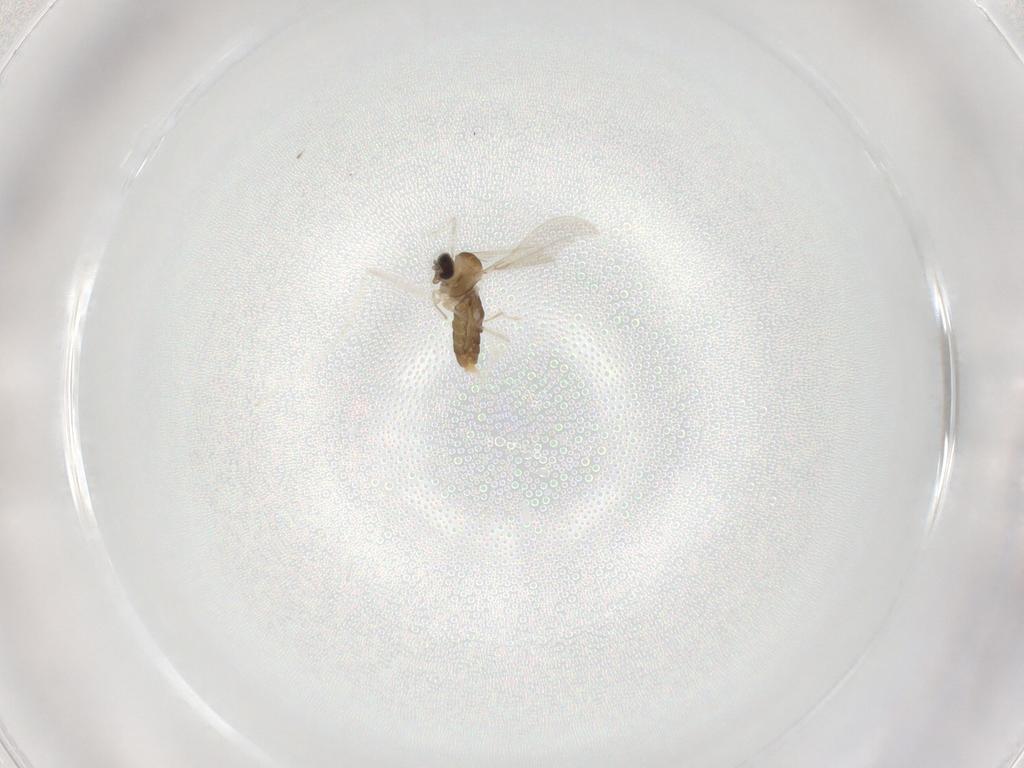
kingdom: Animalia
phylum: Arthropoda
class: Insecta
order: Diptera
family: Cecidomyiidae
